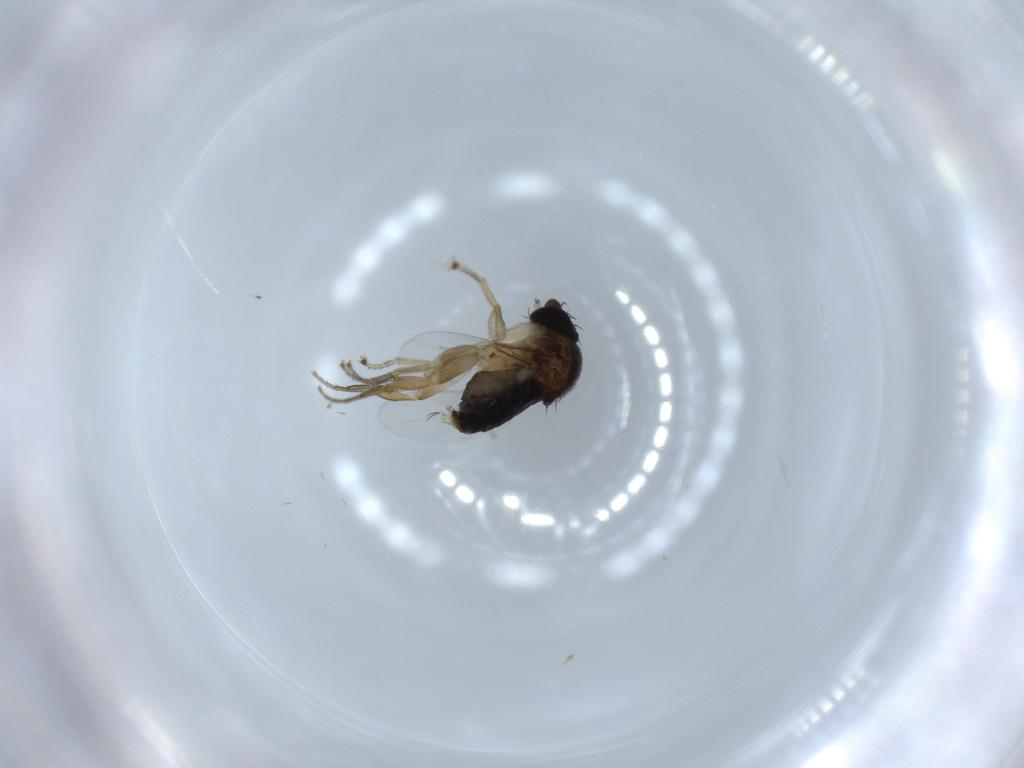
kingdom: Animalia
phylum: Arthropoda
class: Insecta
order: Diptera
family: Phoridae
